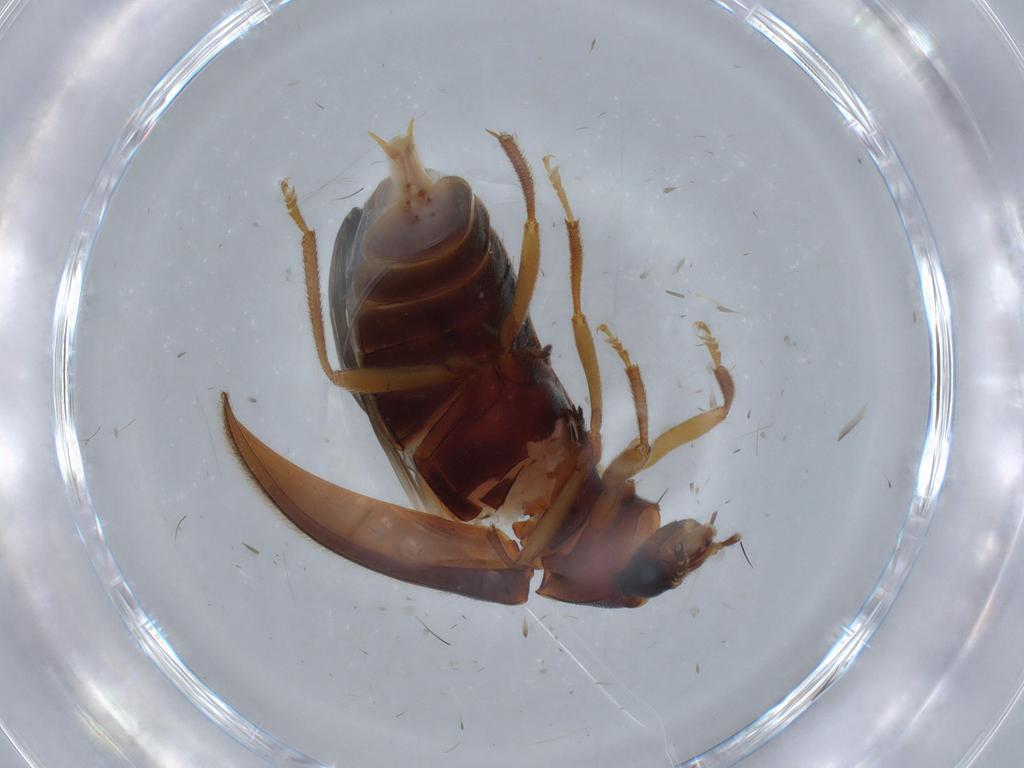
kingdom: Animalia
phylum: Arthropoda
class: Insecta
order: Coleoptera
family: Ptilodactylidae
